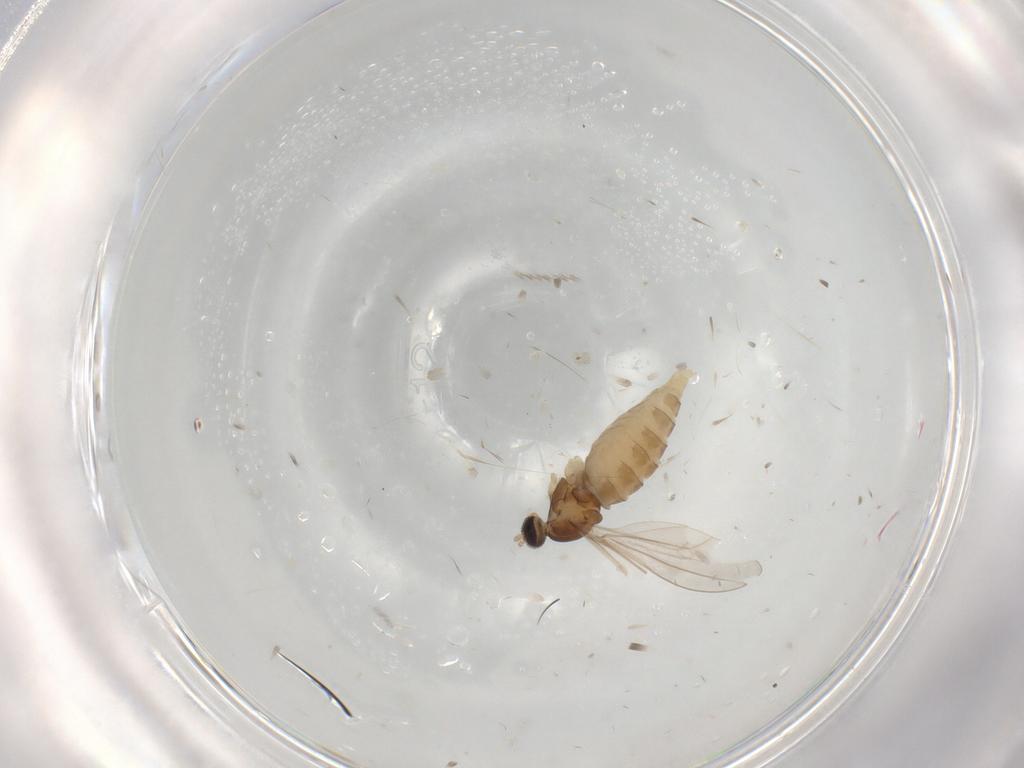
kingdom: Animalia
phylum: Arthropoda
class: Insecta
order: Diptera
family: Cecidomyiidae
